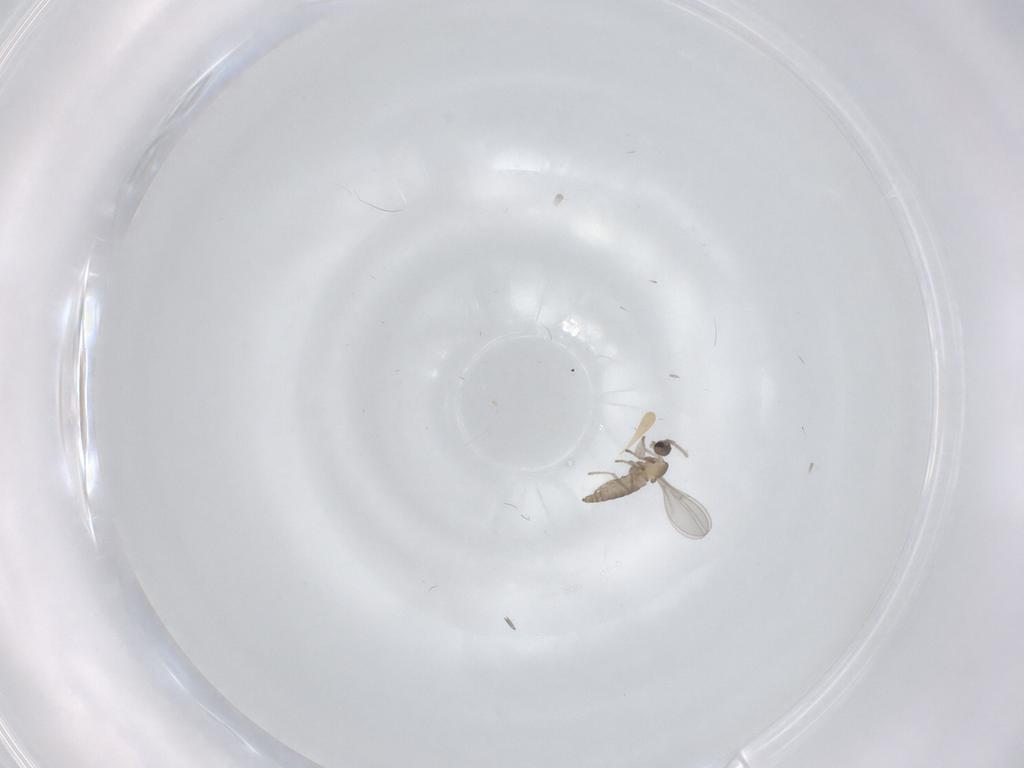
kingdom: Animalia
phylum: Arthropoda
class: Insecta
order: Diptera
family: Cecidomyiidae
